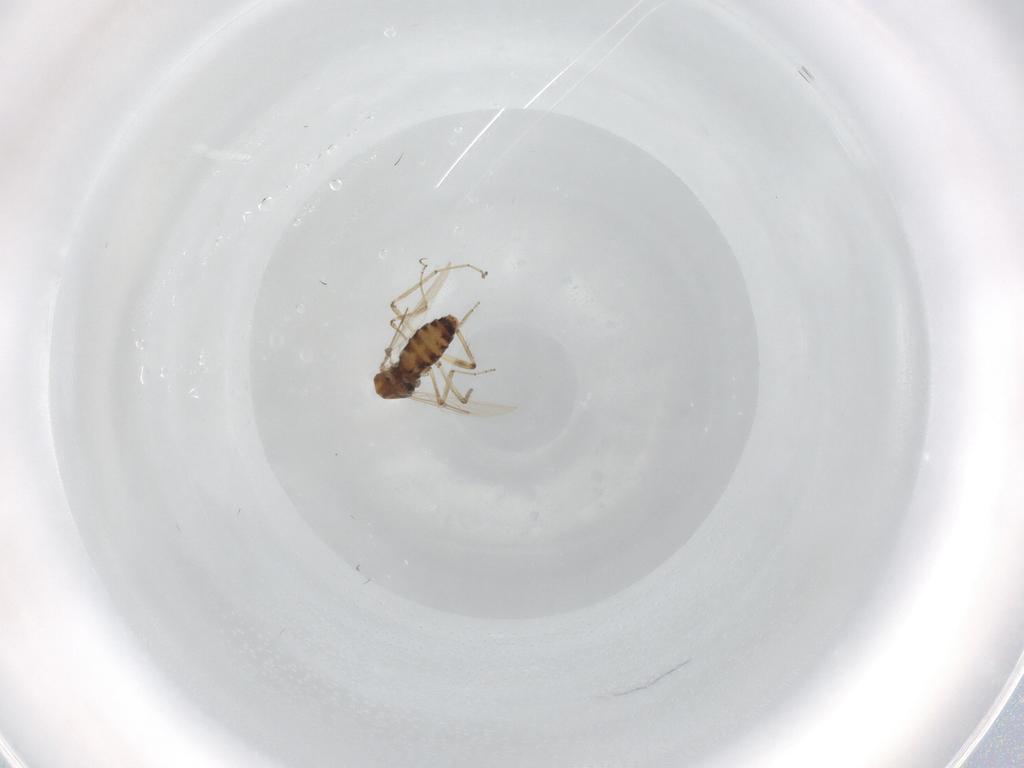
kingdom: Animalia
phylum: Arthropoda
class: Insecta
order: Diptera
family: Ceratopogonidae
